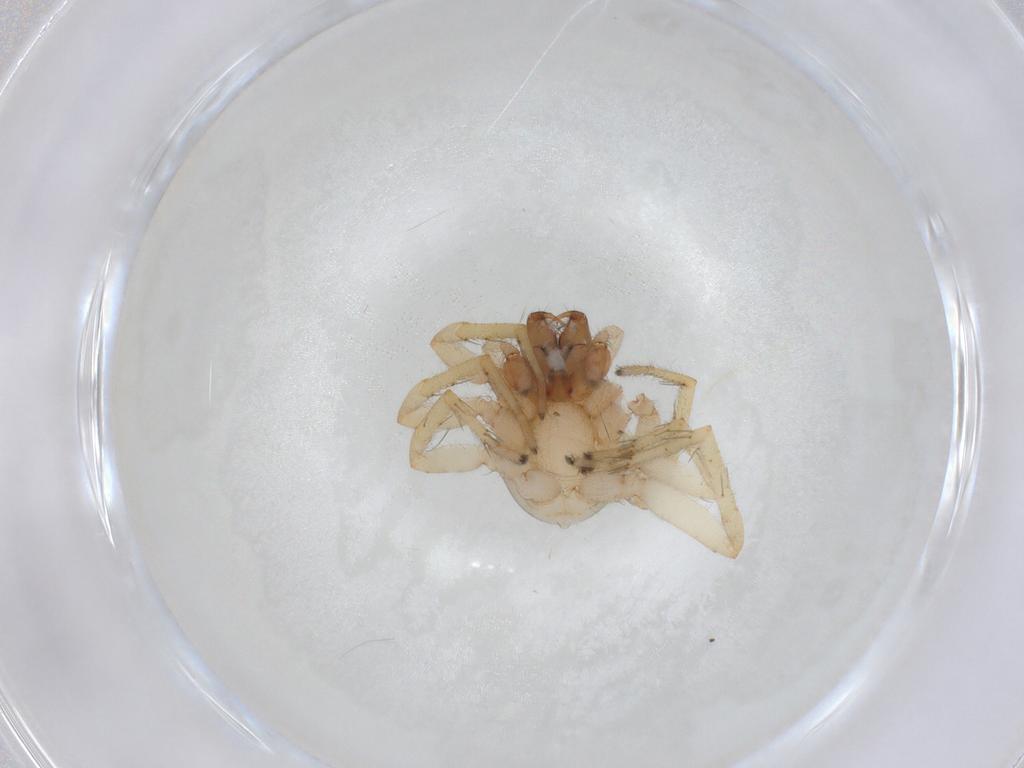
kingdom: Animalia
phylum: Arthropoda
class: Arachnida
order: Araneae
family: Clubionidae
